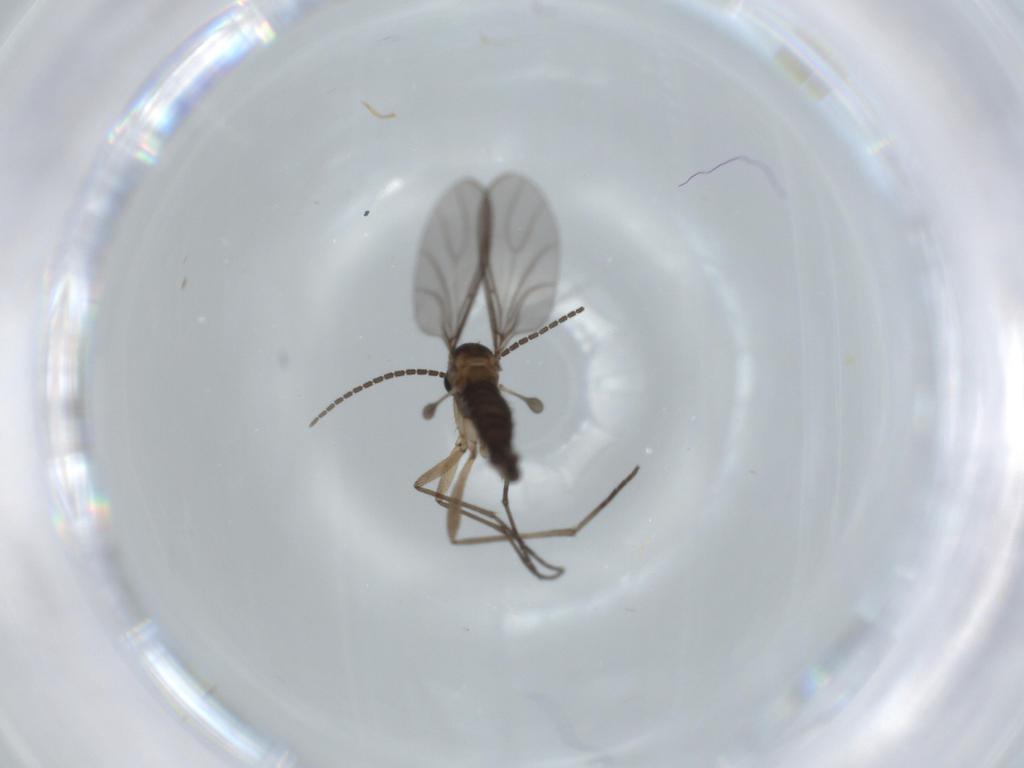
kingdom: Animalia
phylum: Arthropoda
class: Insecta
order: Diptera
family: Sciaridae
